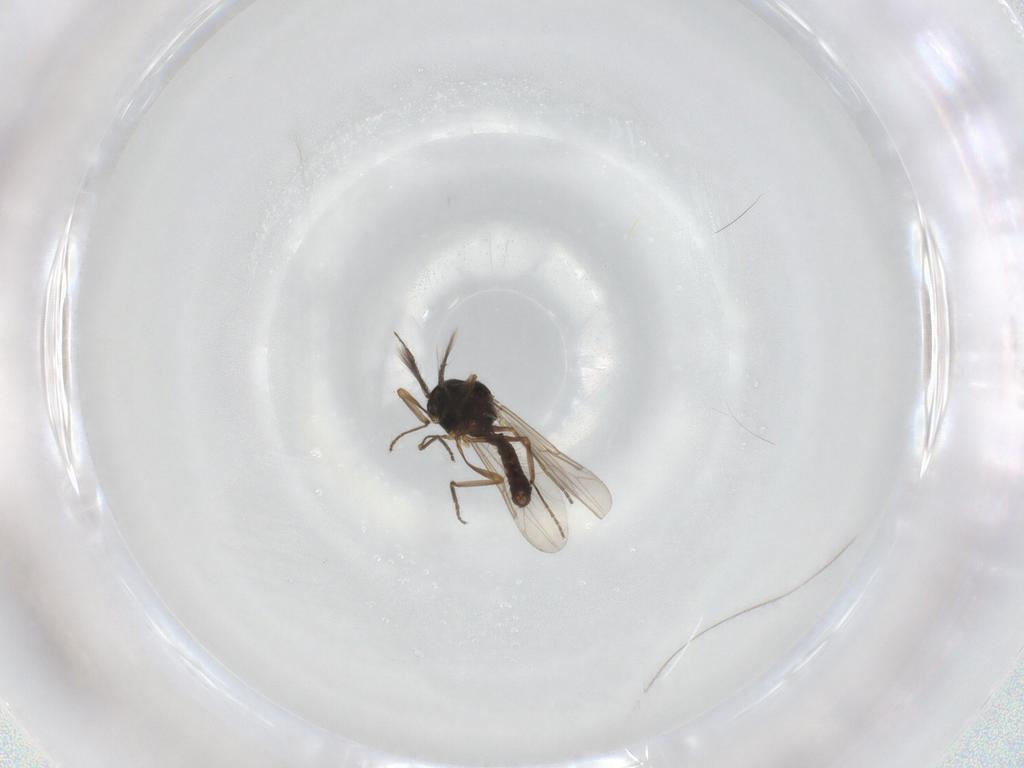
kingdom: Animalia
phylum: Arthropoda
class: Insecta
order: Diptera
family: Ceratopogonidae
